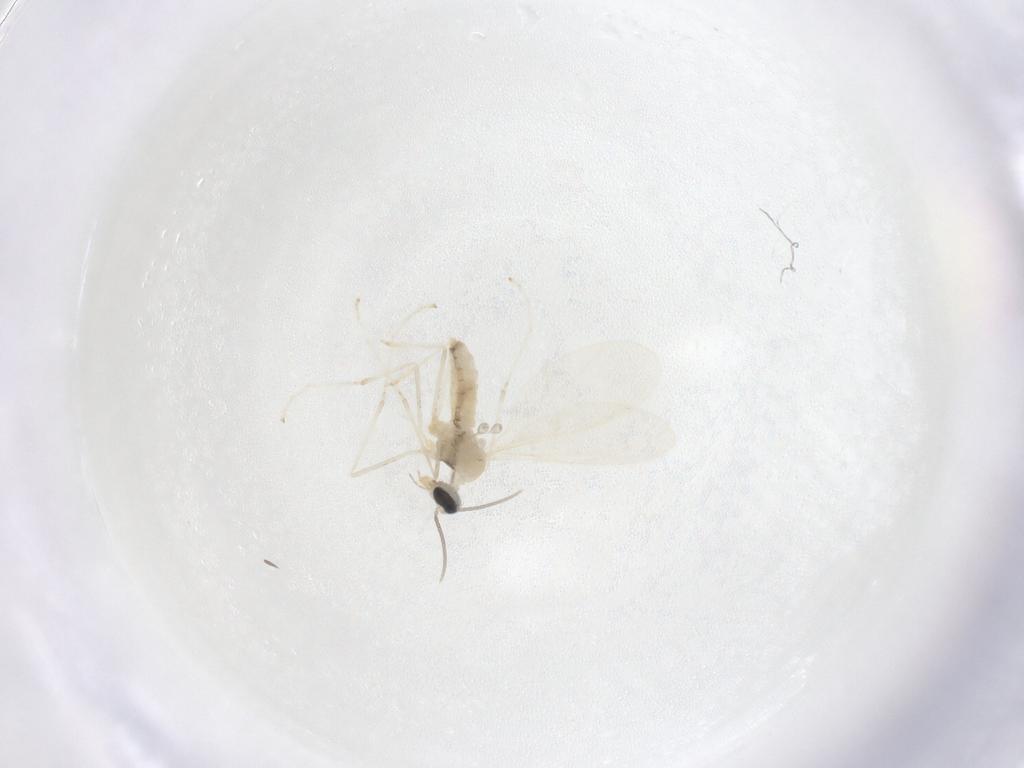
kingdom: Animalia
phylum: Arthropoda
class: Insecta
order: Diptera
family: Cecidomyiidae
